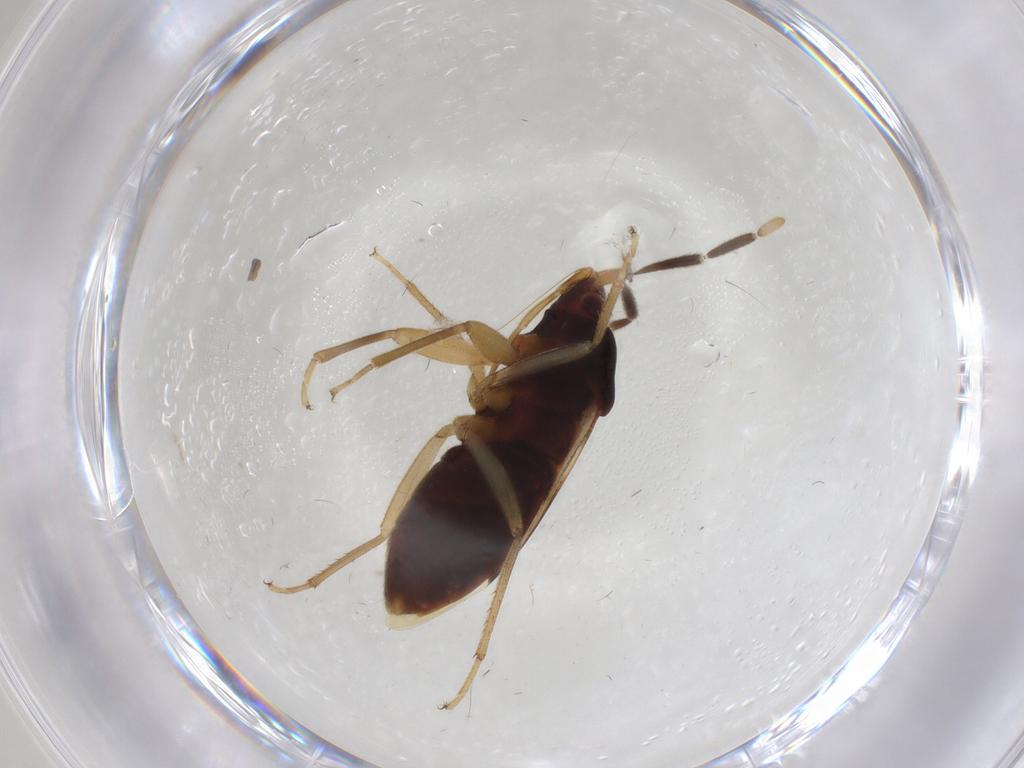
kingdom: Animalia
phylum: Arthropoda
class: Insecta
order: Hemiptera
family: Rhyparochromidae
